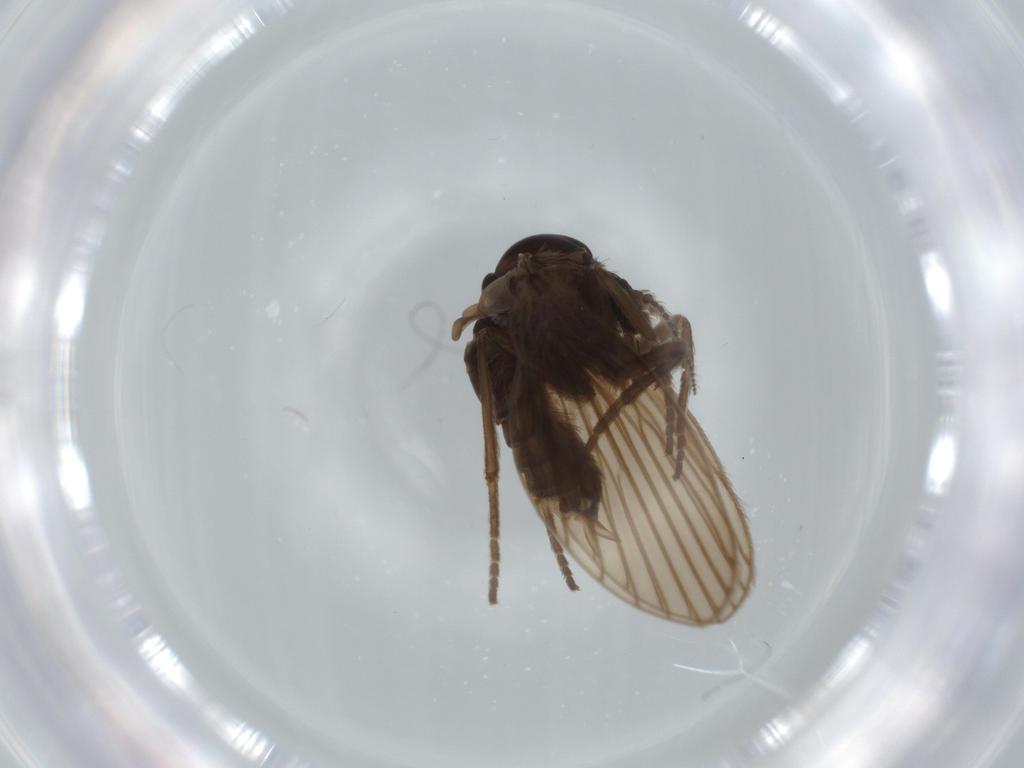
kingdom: Animalia
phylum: Arthropoda
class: Insecta
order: Diptera
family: Psychodidae
